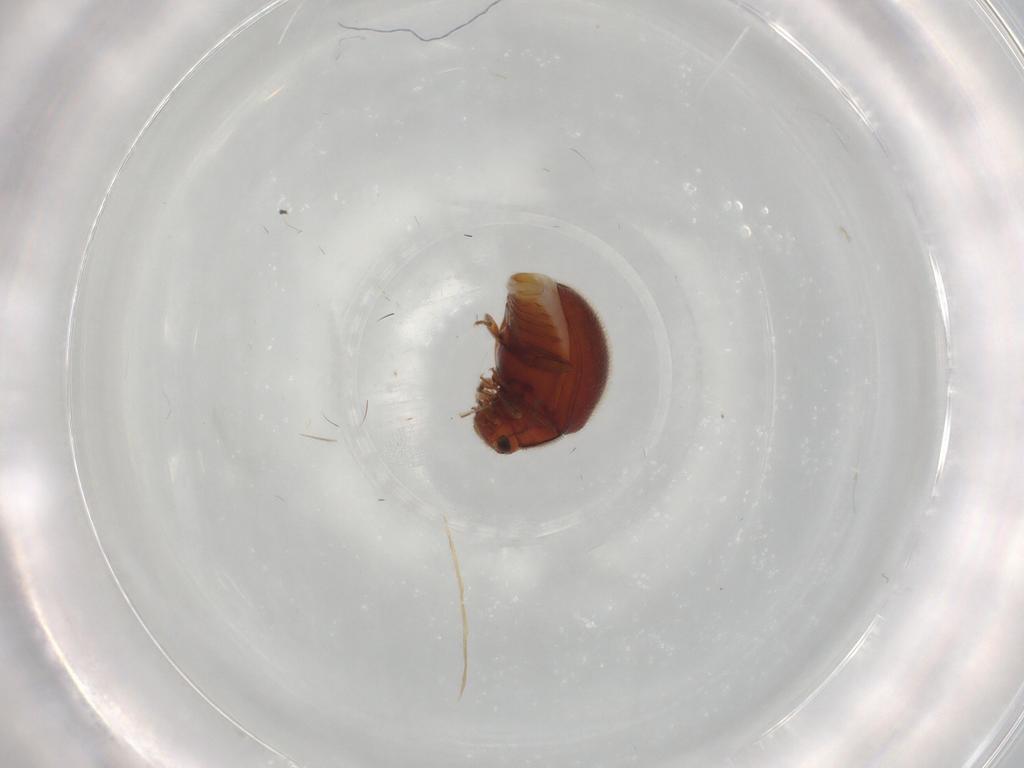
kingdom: Animalia
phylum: Arthropoda
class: Insecta
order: Coleoptera
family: Anamorphidae
